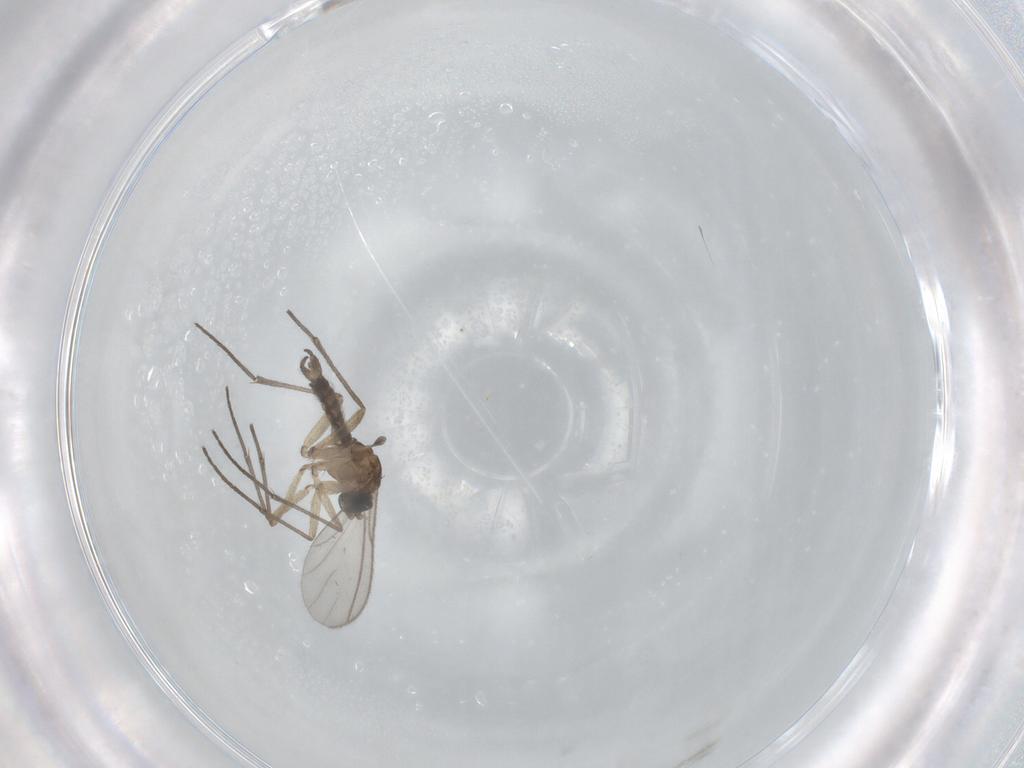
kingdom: Animalia
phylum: Arthropoda
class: Insecta
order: Diptera
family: Sciaridae
